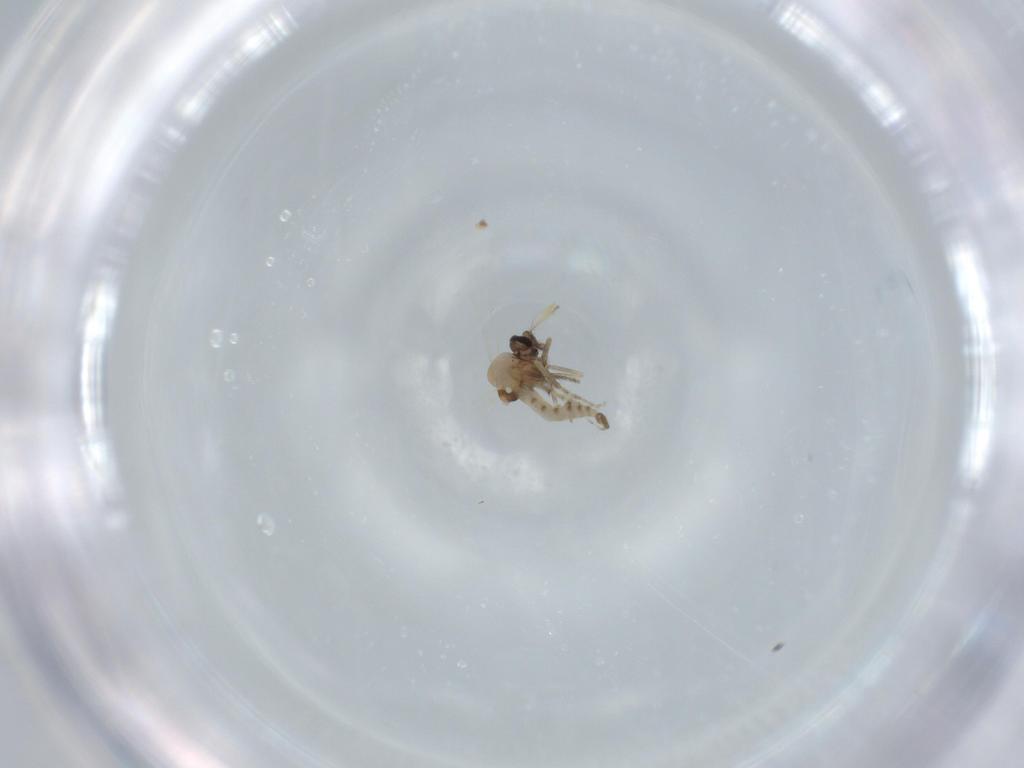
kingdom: Animalia
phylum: Arthropoda
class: Insecta
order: Diptera
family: Ceratopogonidae
